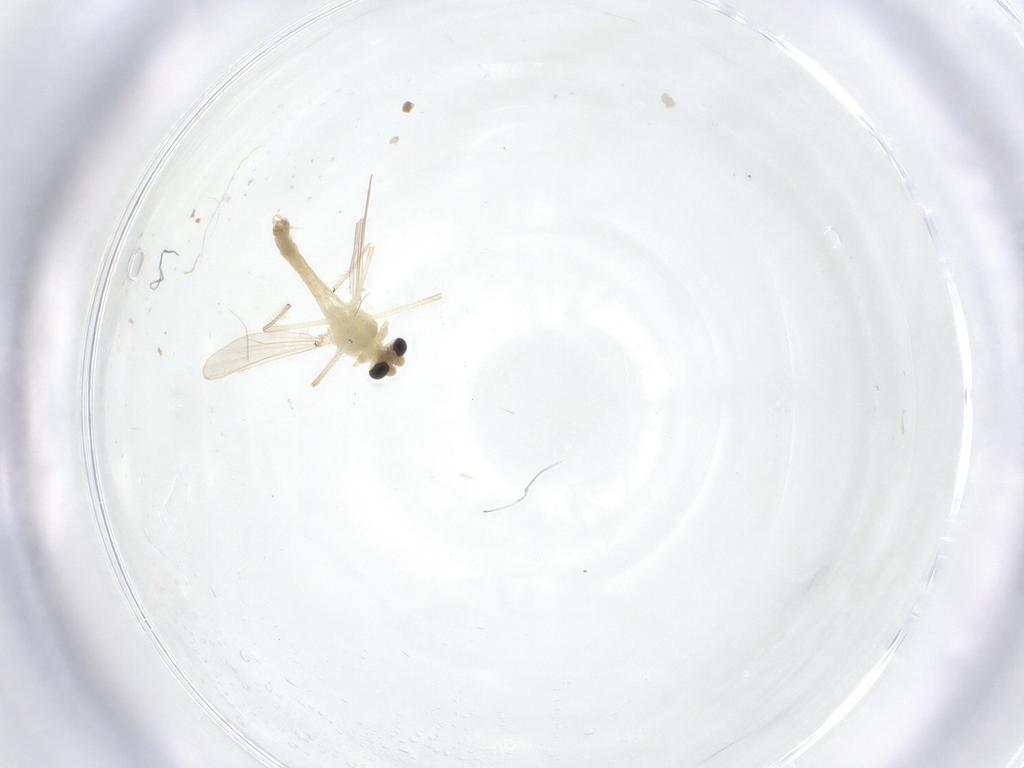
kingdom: Animalia
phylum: Arthropoda
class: Insecta
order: Diptera
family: Chironomidae
